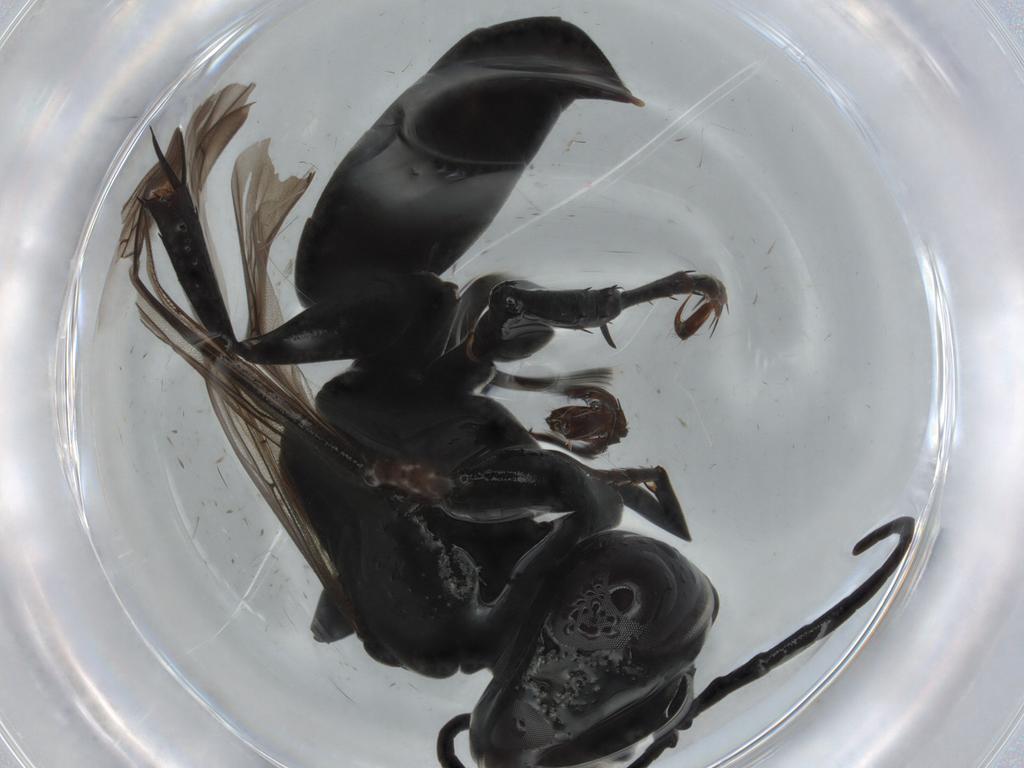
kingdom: Animalia
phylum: Arthropoda
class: Insecta
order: Hymenoptera
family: Crabronidae
